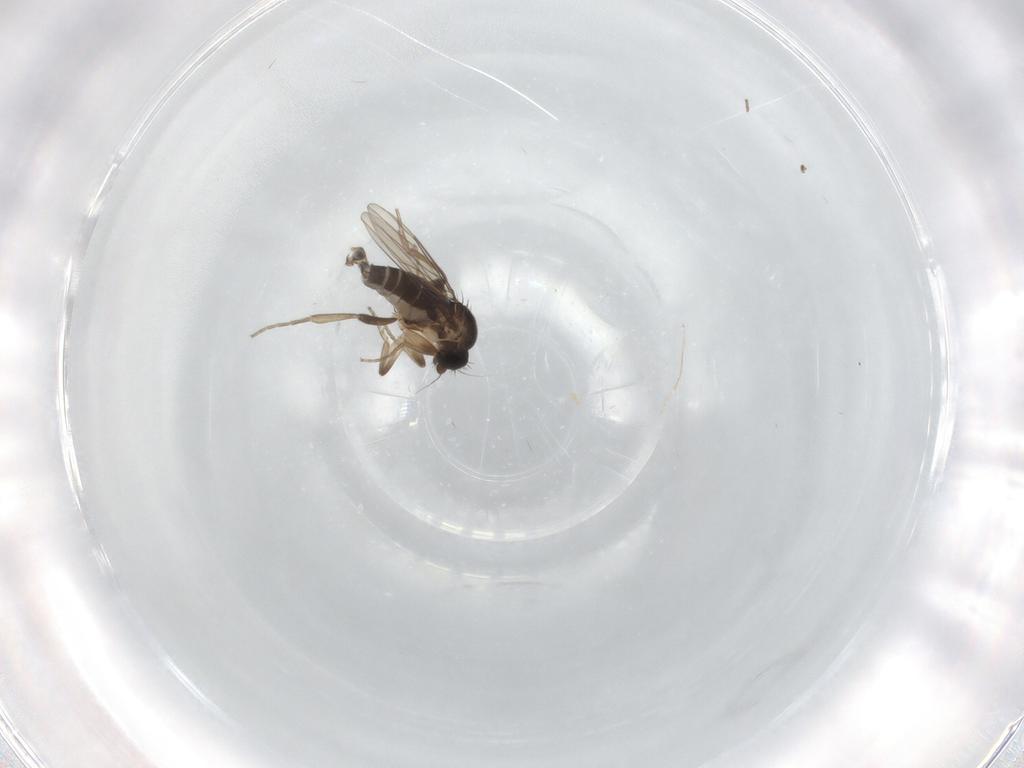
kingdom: Animalia
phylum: Arthropoda
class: Insecta
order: Diptera
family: Phoridae
